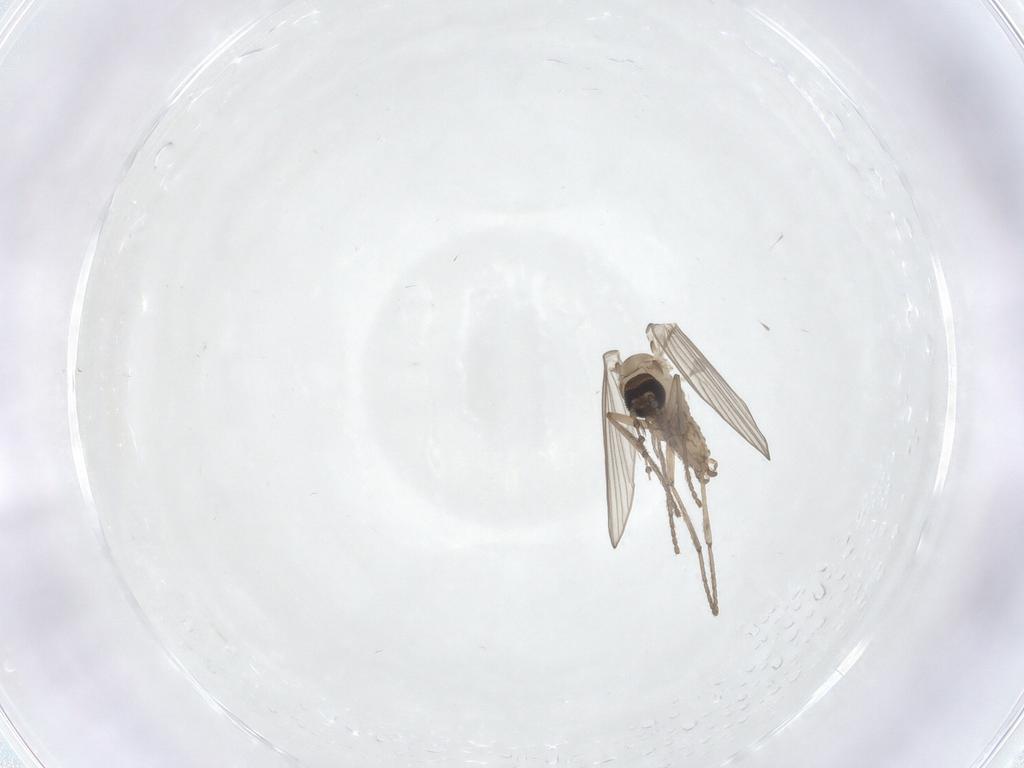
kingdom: Animalia
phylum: Arthropoda
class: Insecta
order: Diptera
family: Psychodidae
